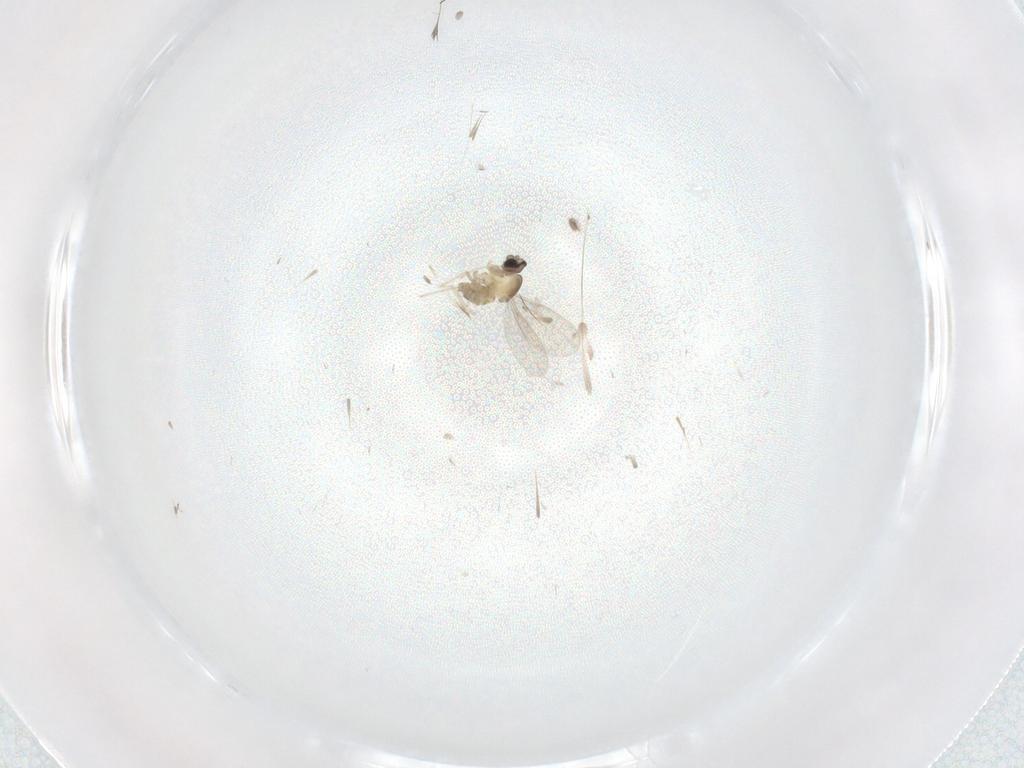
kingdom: Animalia
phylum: Arthropoda
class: Insecta
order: Diptera
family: Cecidomyiidae
